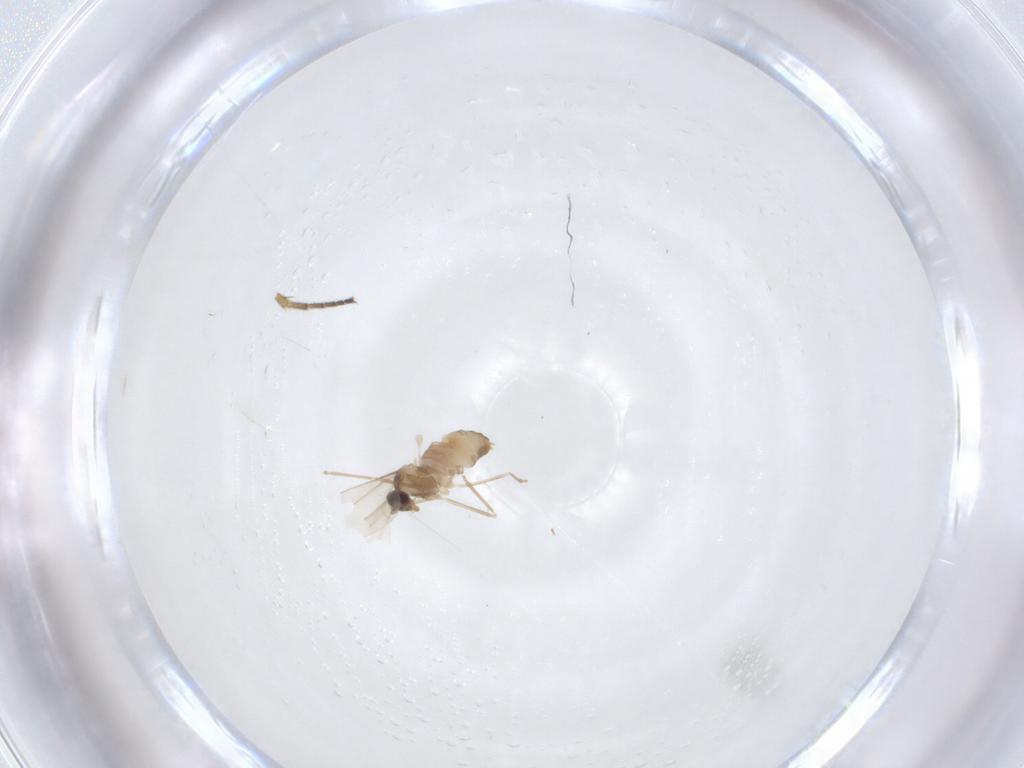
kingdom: Animalia
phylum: Arthropoda
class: Insecta
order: Diptera
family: Cecidomyiidae
